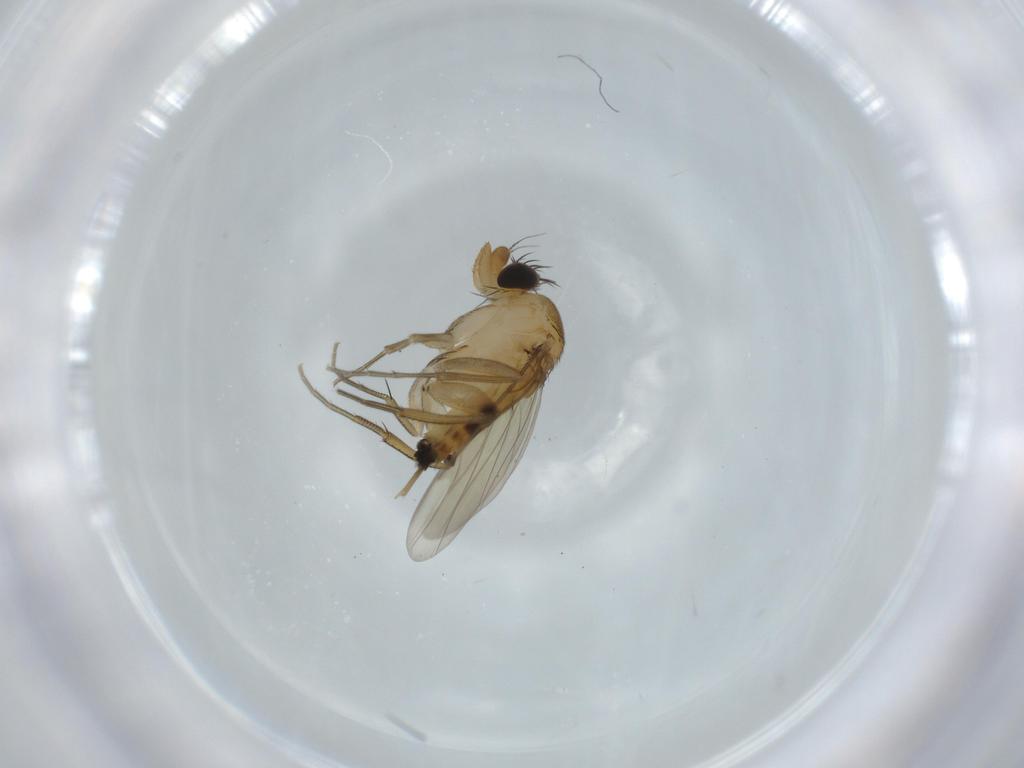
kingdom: Animalia
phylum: Arthropoda
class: Insecta
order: Diptera
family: Phoridae
